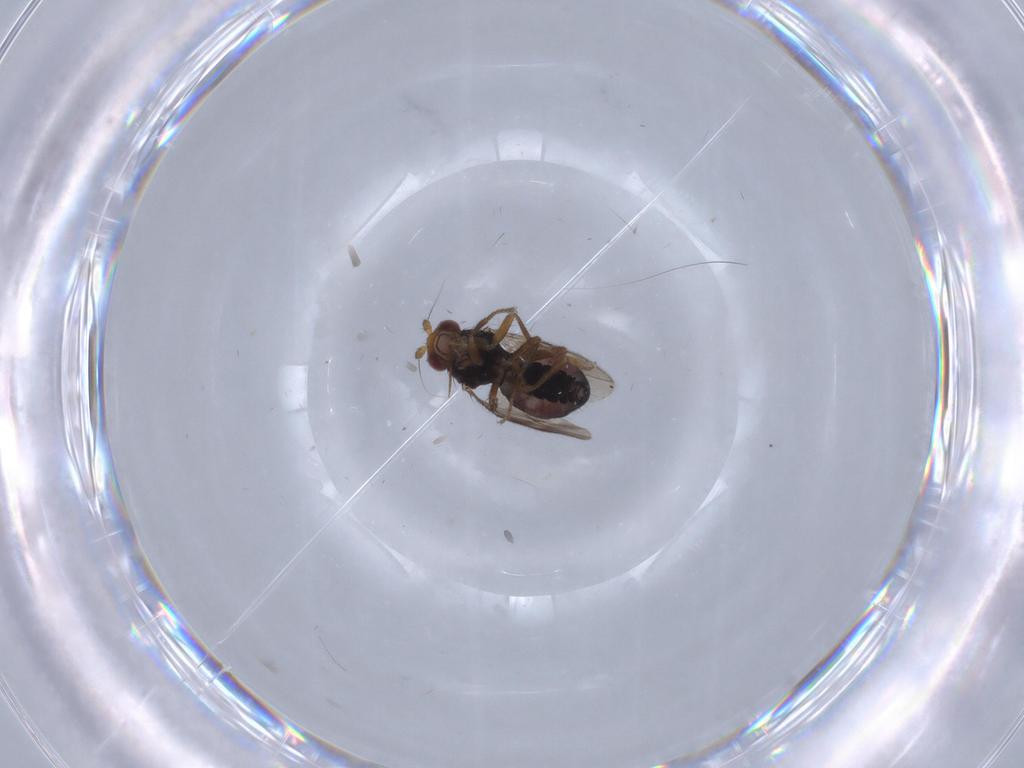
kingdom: Animalia
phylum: Arthropoda
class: Insecta
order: Diptera
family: Sphaeroceridae
